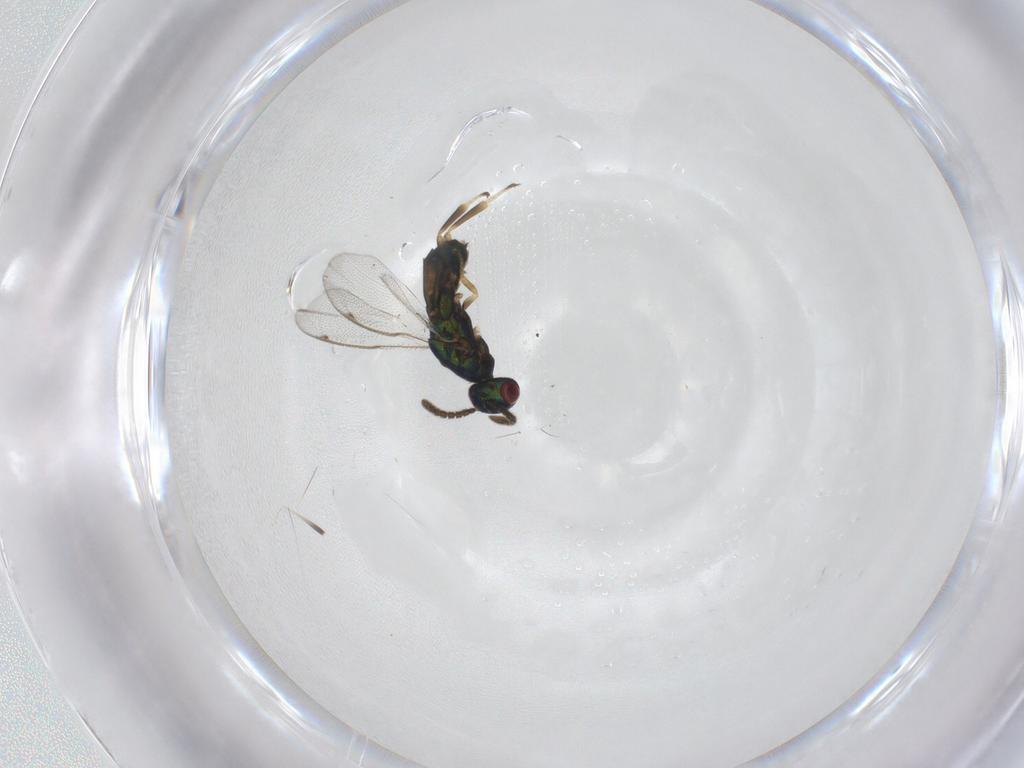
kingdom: Animalia
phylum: Arthropoda
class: Insecta
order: Hymenoptera
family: Torymidae
